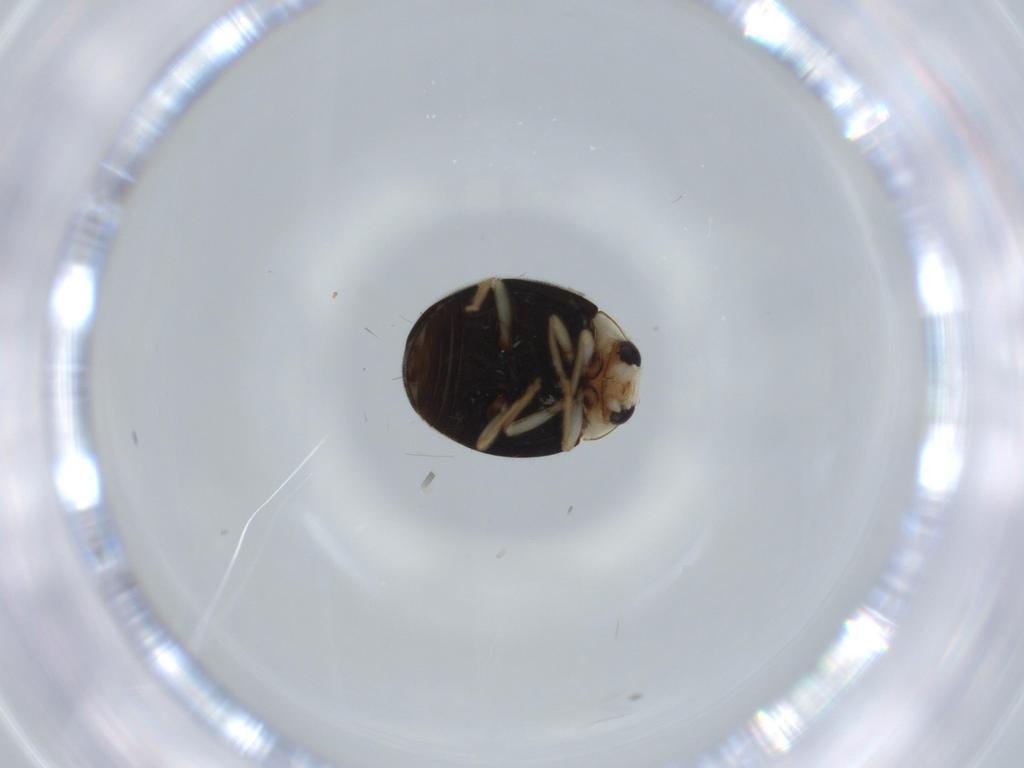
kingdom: Animalia
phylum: Arthropoda
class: Insecta
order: Coleoptera
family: Coccinellidae
